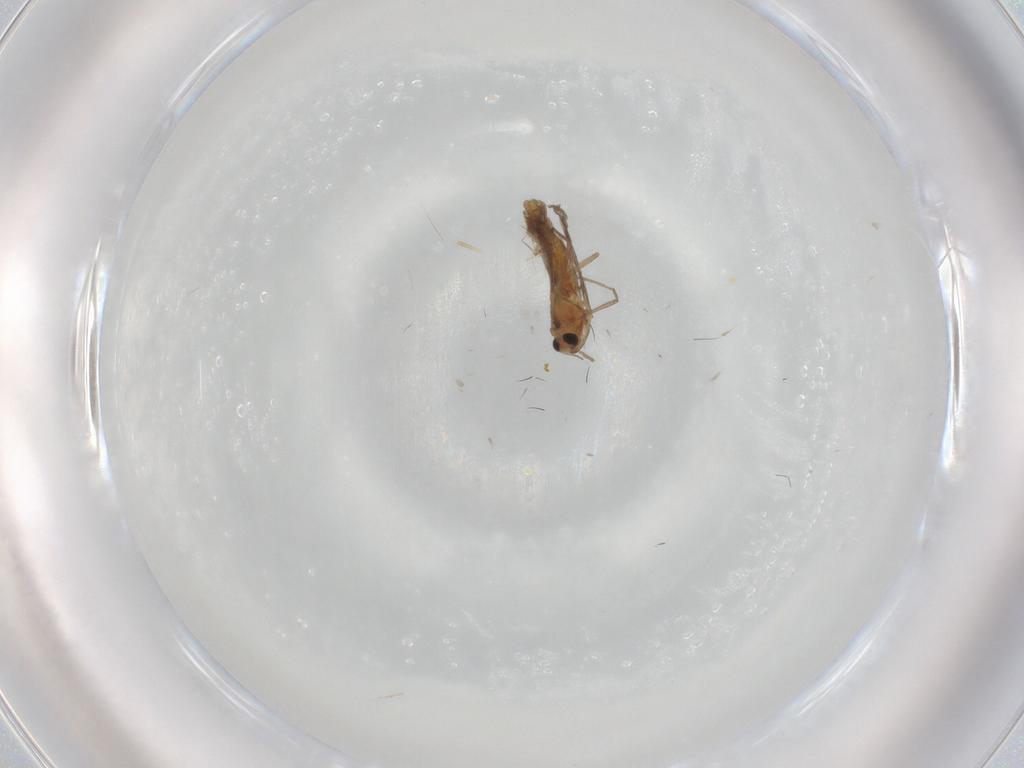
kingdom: Animalia
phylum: Arthropoda
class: Insecta
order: Diptera
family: Chironomidae
